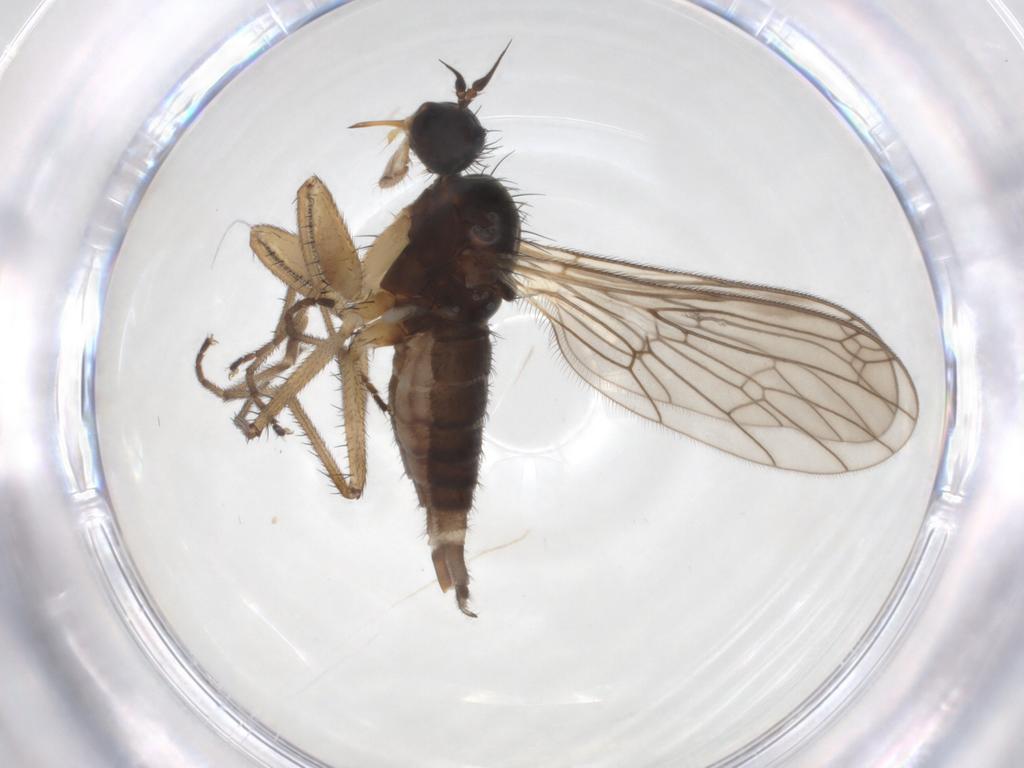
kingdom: Animalia
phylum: Arthropoda
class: Insecta
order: Diptera
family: Empididae
